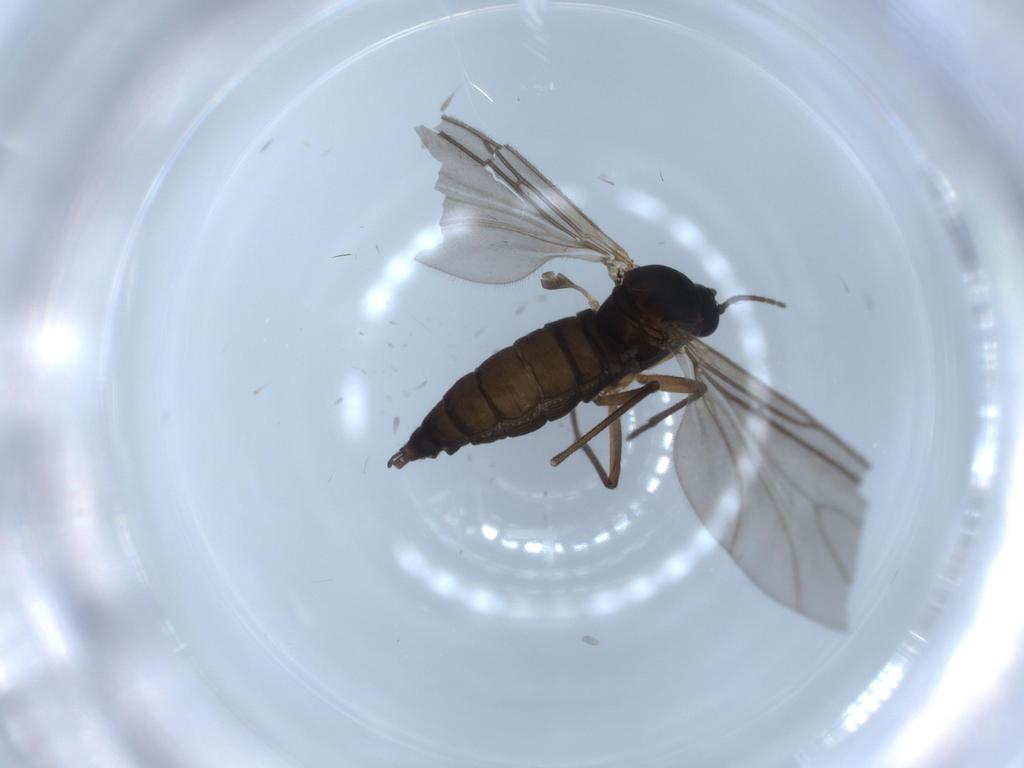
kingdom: Animalia
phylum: Arthropoda
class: Insecta
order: Diptera
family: Sciaridae
